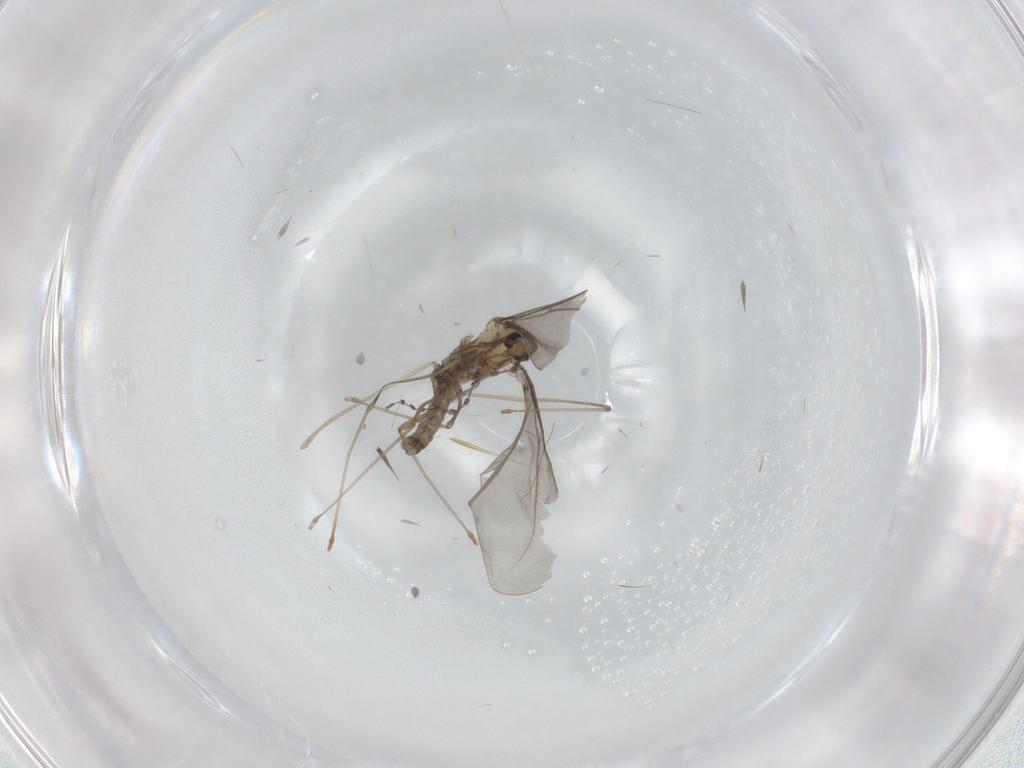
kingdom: Animalia
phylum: Arthropoda
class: Insecta
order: Diptera
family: Cecidomyiidae
